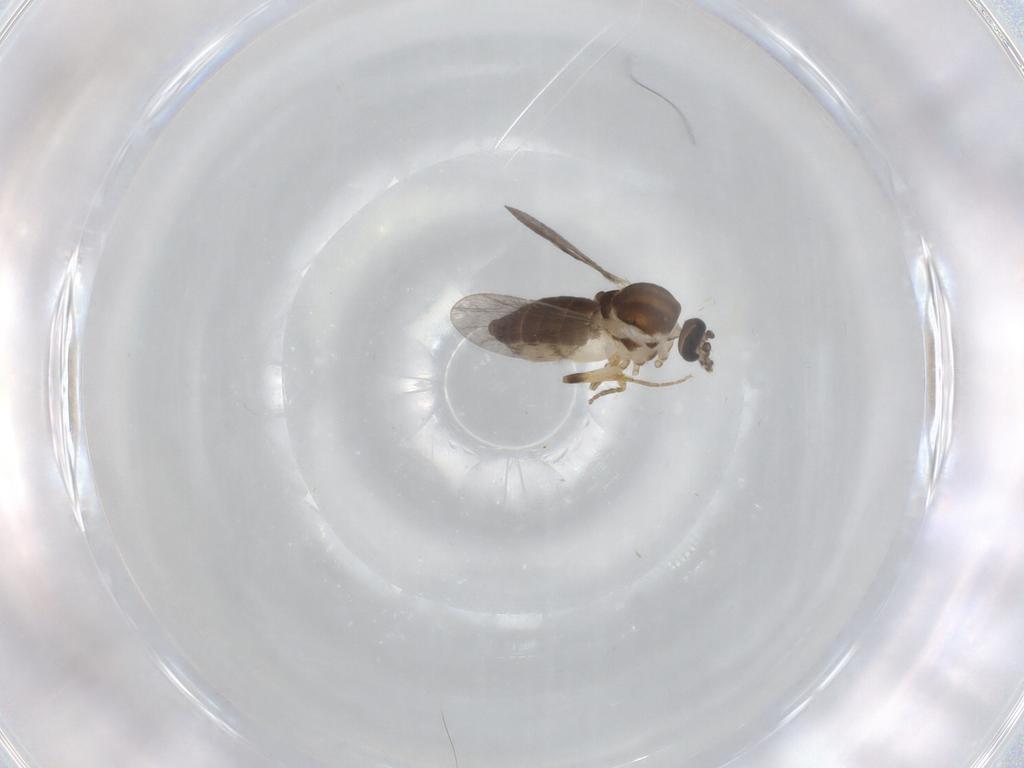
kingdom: Animalia
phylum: Arthropoda
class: Insecta
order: Diptera
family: Ceratopogonidae
